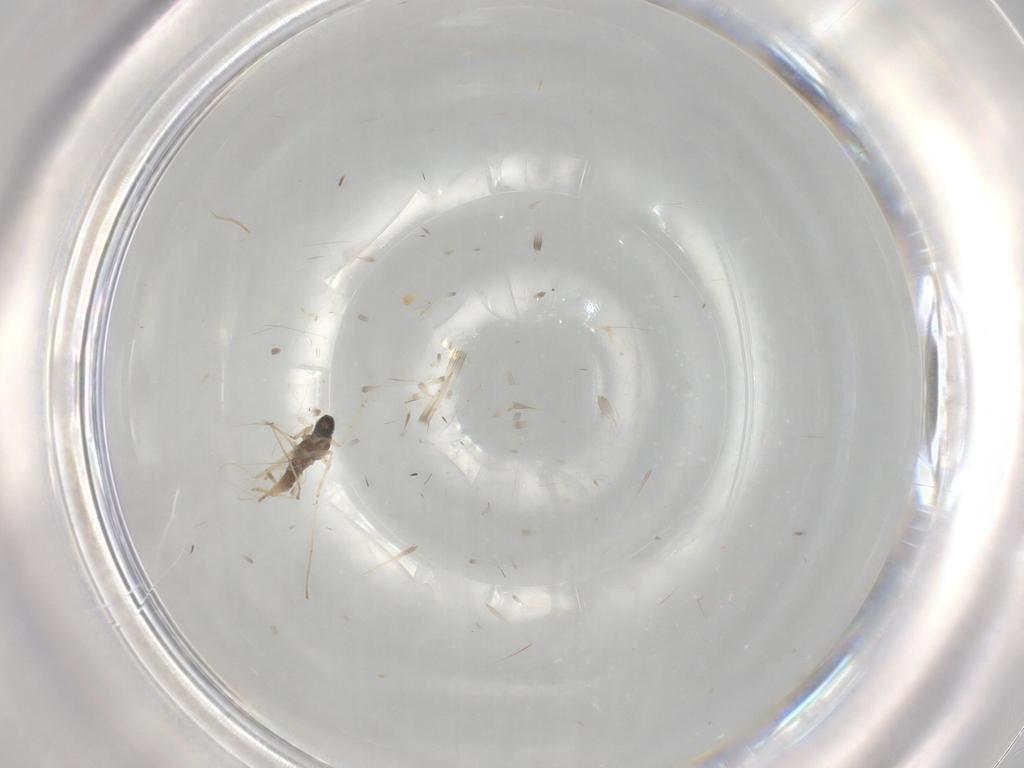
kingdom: Animalia
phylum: Arthropoda
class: Insecta
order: Diptera
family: Cecidomyiidae
